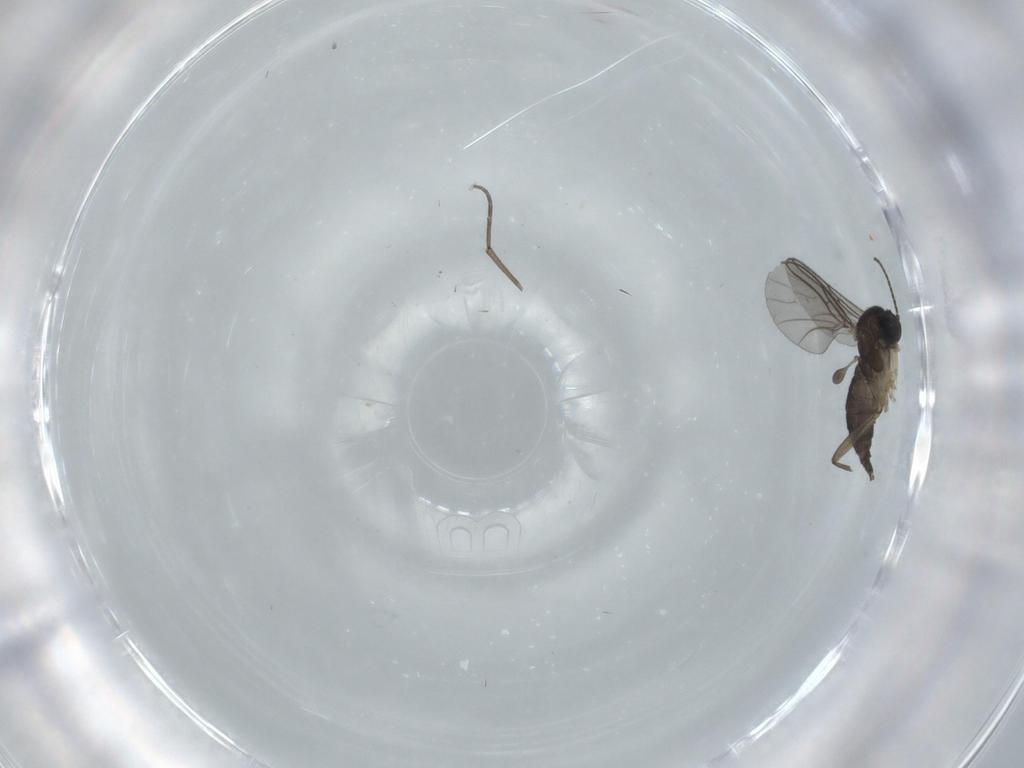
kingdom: Animalia
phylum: Arthropoda
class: Insecta
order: Diptera
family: Sciaridae
